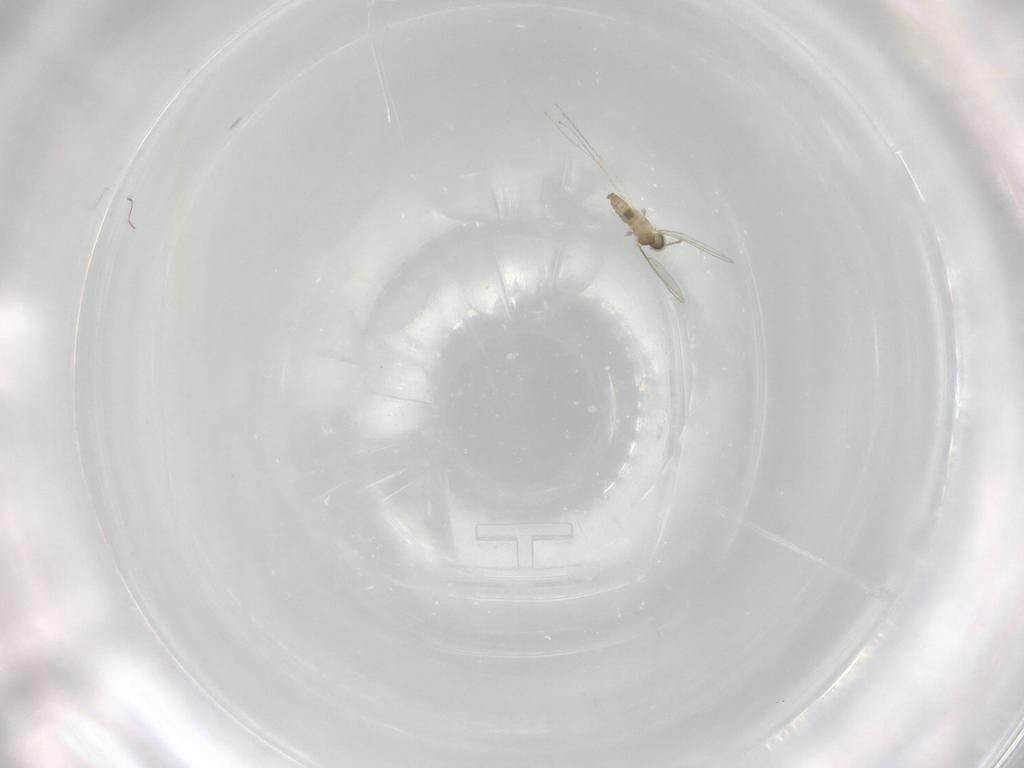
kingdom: Animalia
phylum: Arthropoda
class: Insecta
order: Diptera
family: Cecidomyiidae
